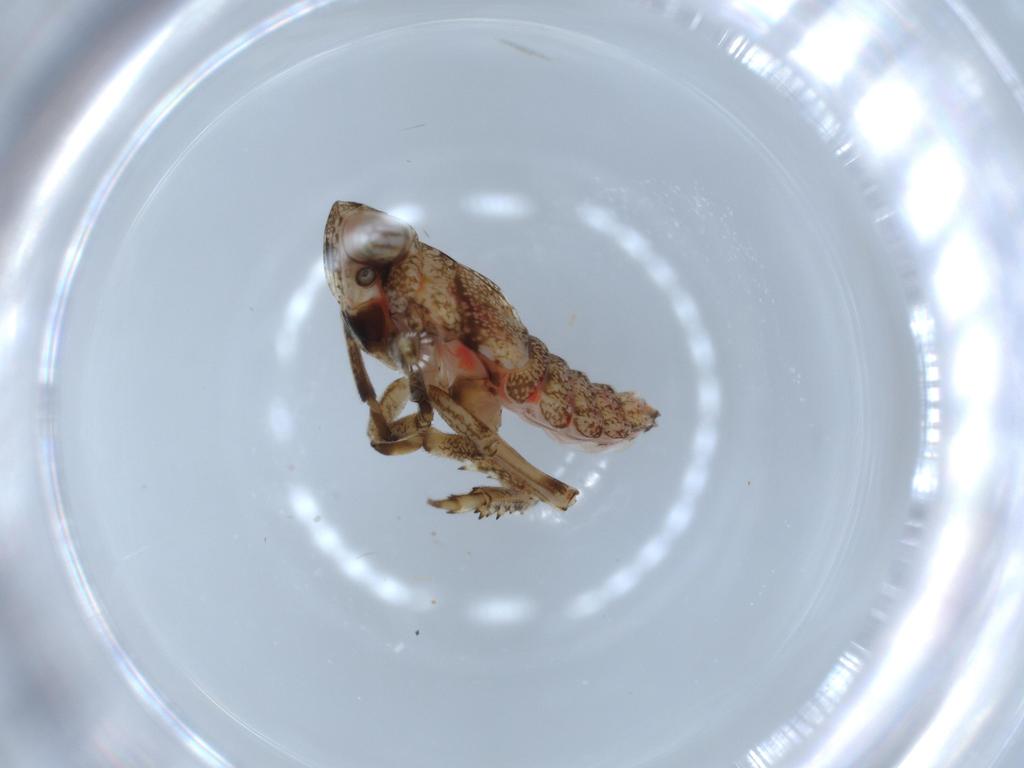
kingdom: Animalia
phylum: Arthropoda
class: Insecta
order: Hemiptera
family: Issidae
